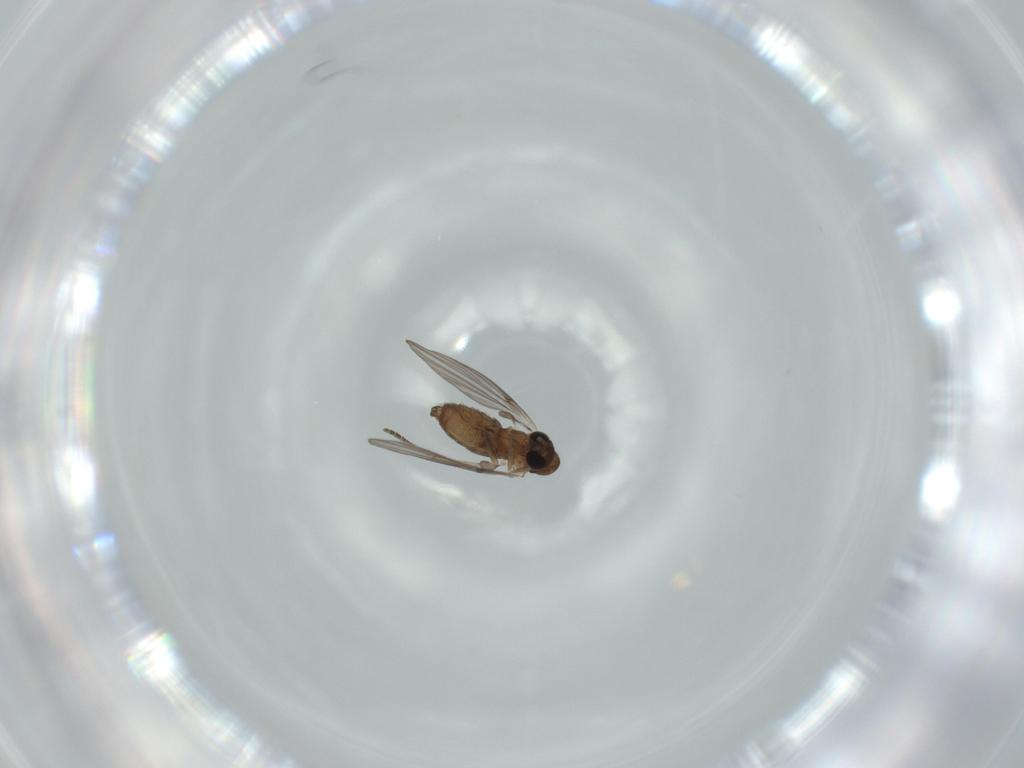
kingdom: Animalia
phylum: Arthropoda
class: Insecta
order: Diptera
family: Psychodidae
